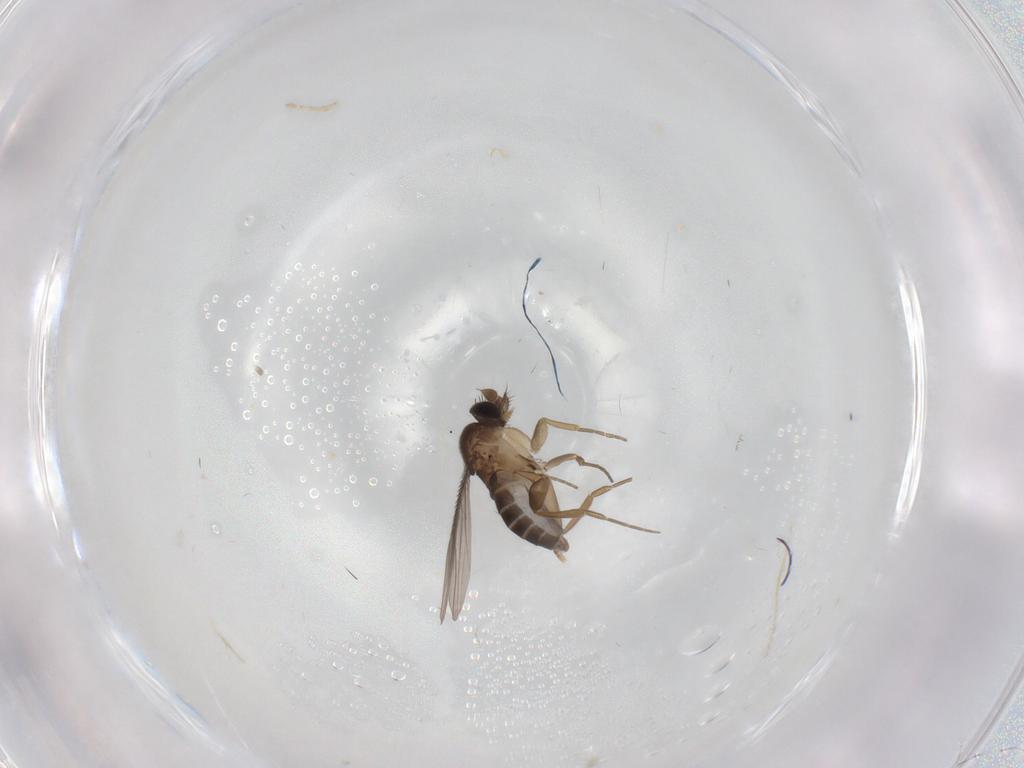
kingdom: Animalia
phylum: Arthropoda
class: Insecta
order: Diptera
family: Phoridae
